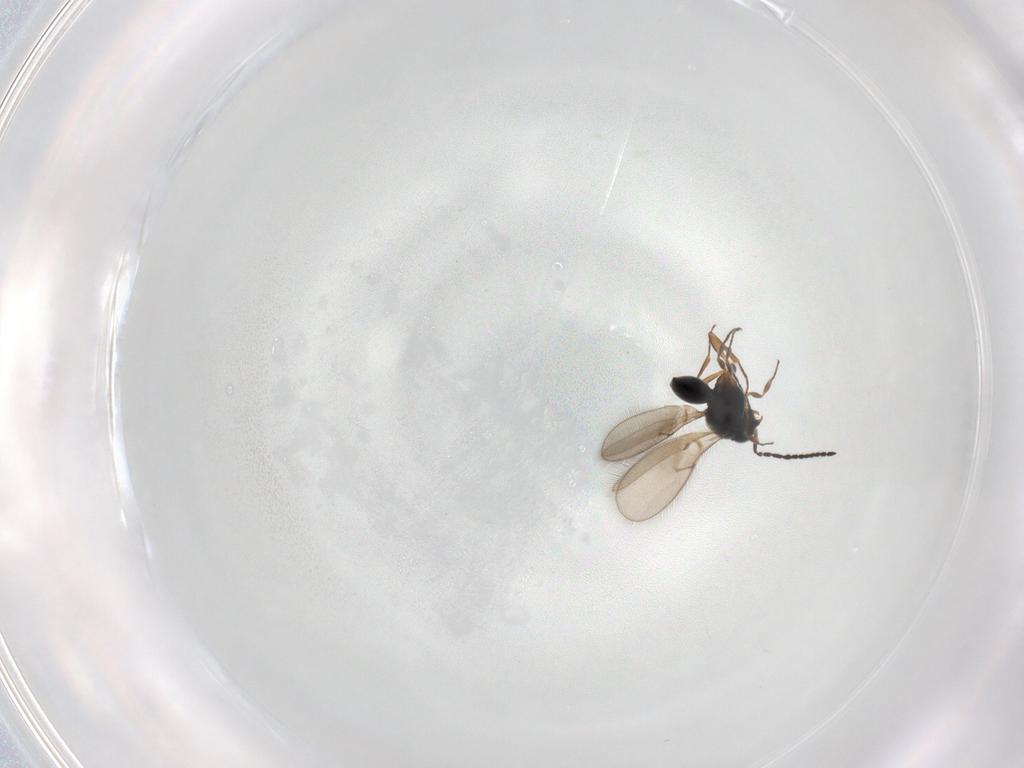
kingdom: Animalia
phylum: Arthropoda
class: Insecta
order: Hymenoptera
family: Scelionidae
